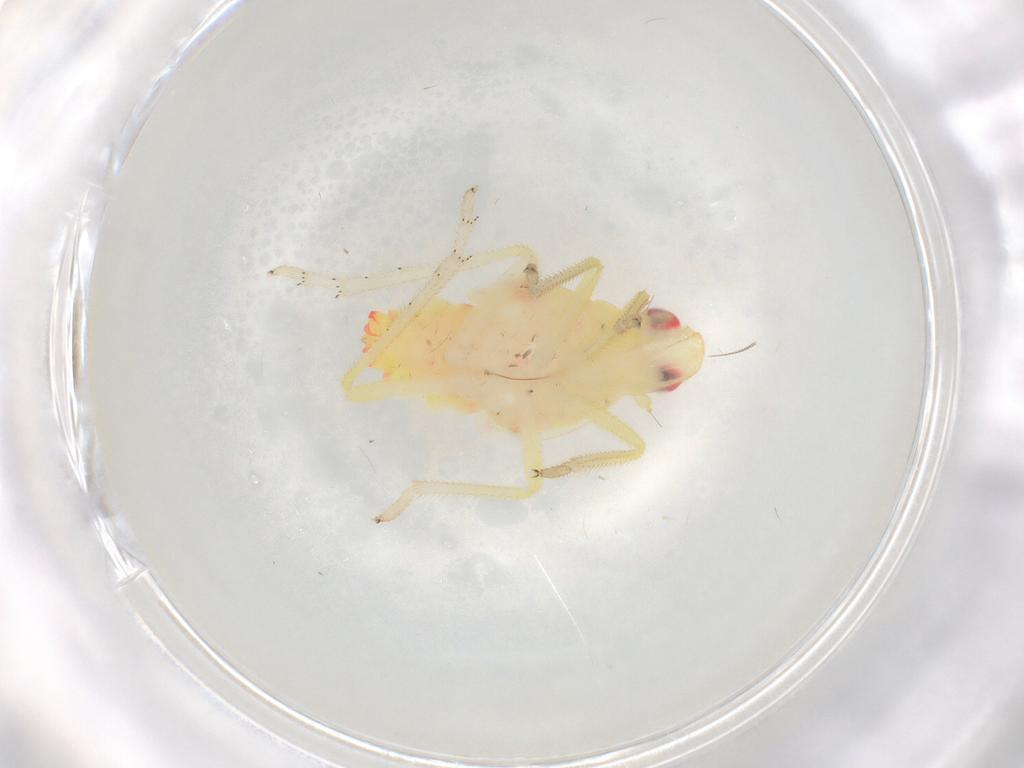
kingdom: Animalia
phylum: Arthropoda
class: Insecta
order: Hemiptera
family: Tropiduchidae
